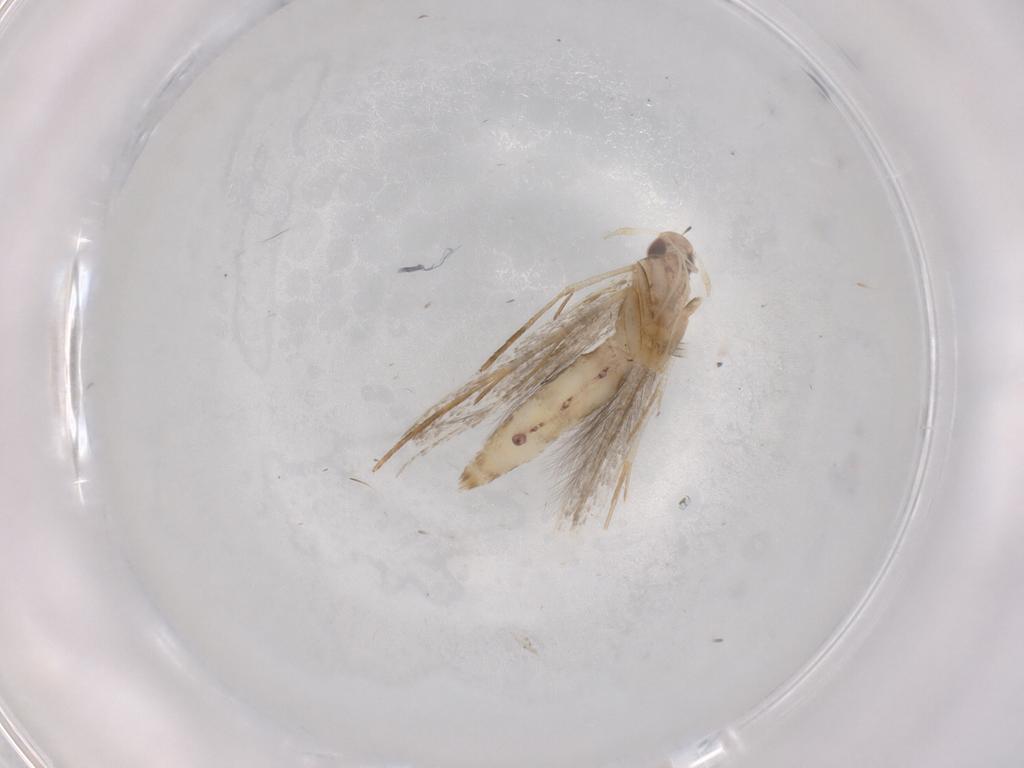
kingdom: Animalia
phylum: Arthropoda
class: Insecta
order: Lepidoptera
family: Cosmopterigidae
